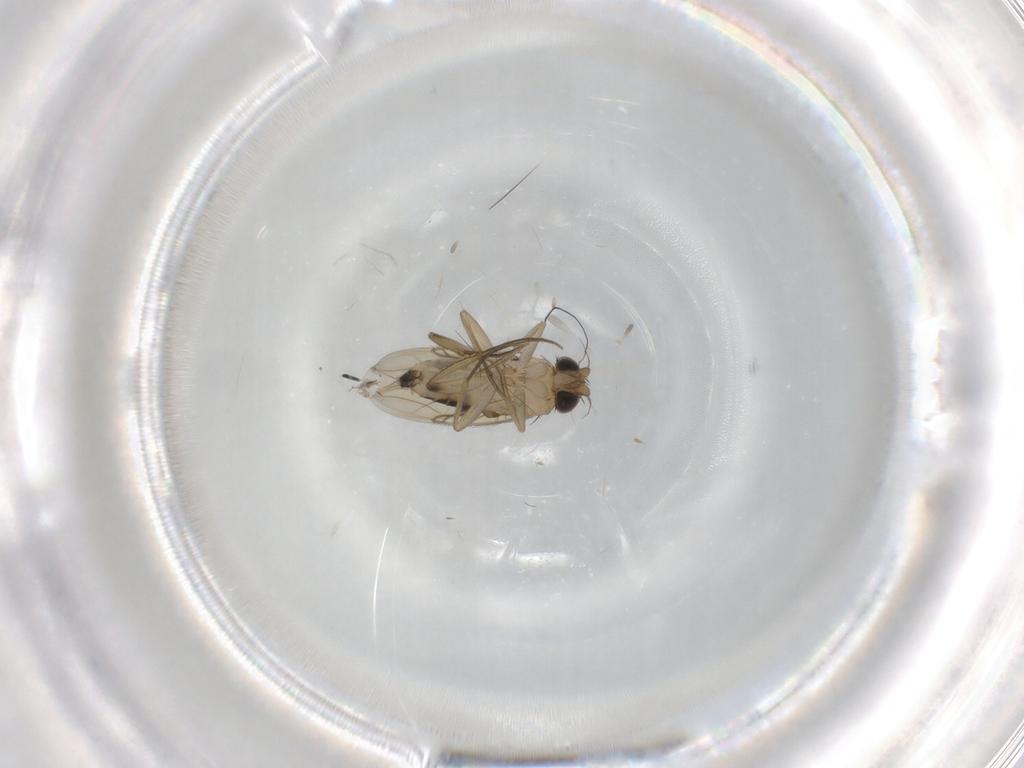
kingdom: Animalia
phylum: Arthropoda
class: Insecta
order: Diptera
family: Phoridae
